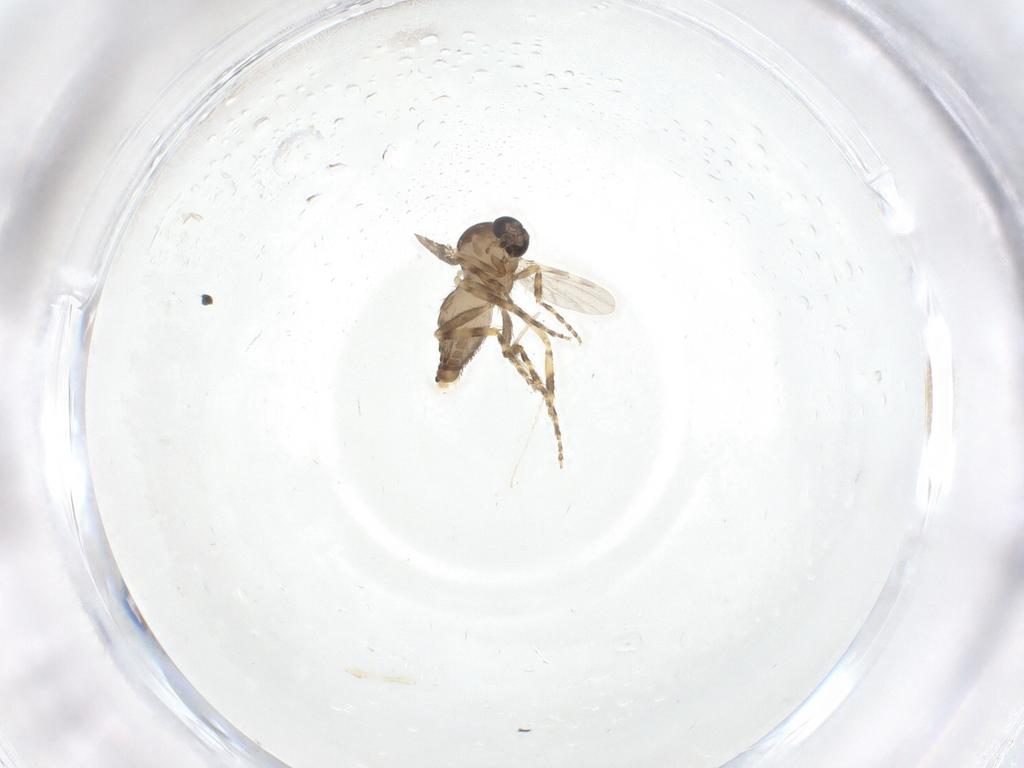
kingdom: Animalia
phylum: Arthropoda
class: Insecta
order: Diptera
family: Ceratopogonidae
